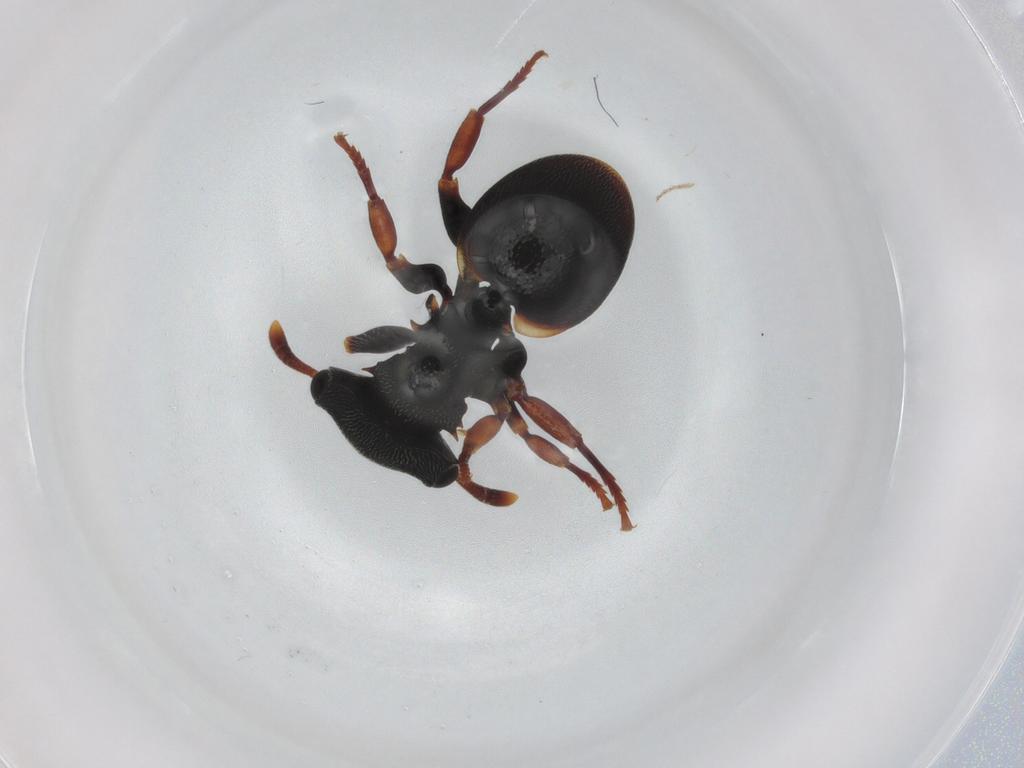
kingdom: Animalia
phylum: Arthropoda
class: Insecta
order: Hymenoptera
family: Formicidae
